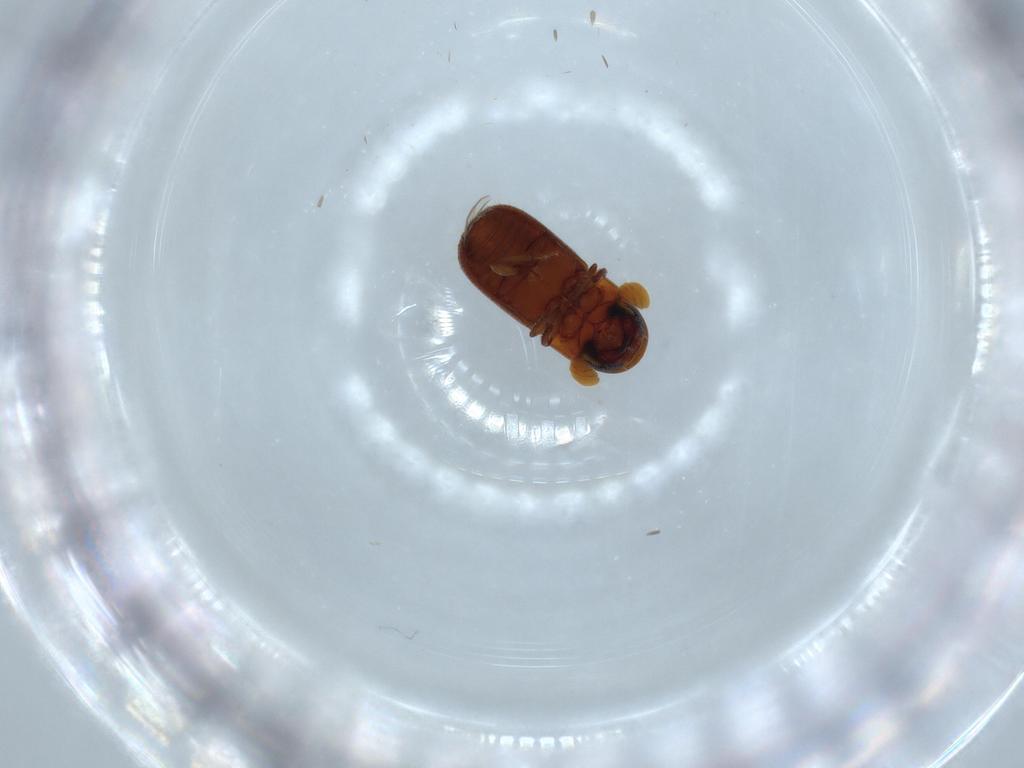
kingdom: Animalia
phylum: Arthropoda
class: Insecta
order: Coleoptera
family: Curculionidae
